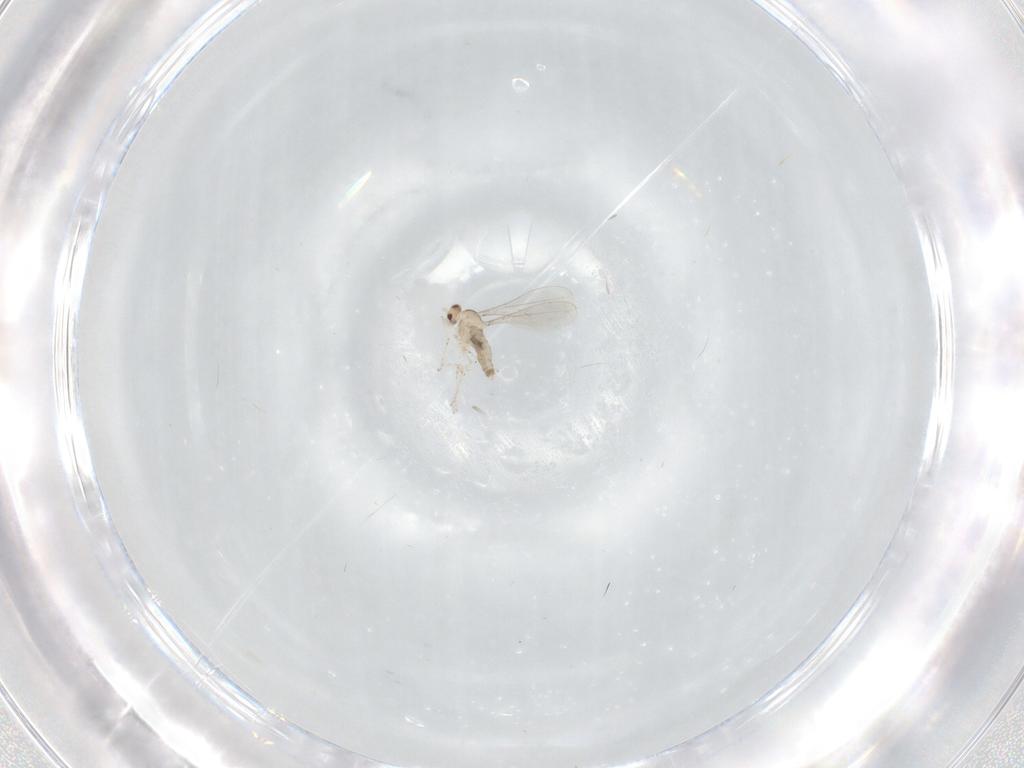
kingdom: Animalia
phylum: Arthropoda
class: Insecta
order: Diptera
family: Cecidomyiidae
